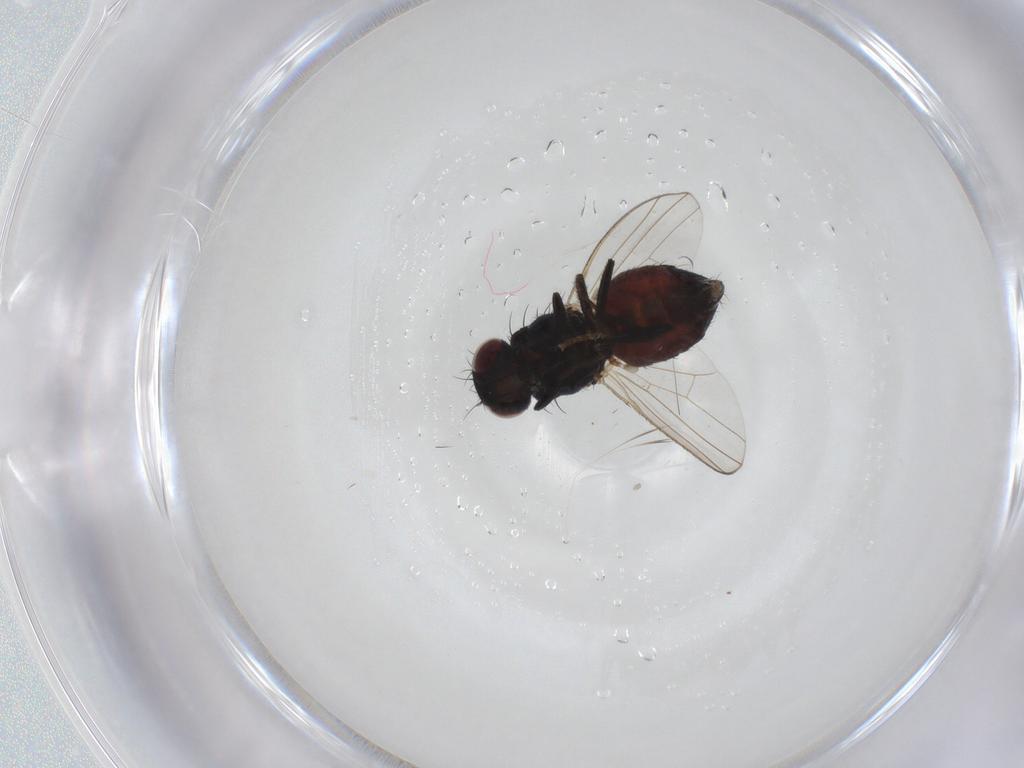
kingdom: Animalia
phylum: Arthropoda
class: Insecta
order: Diptera
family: Carnidae
